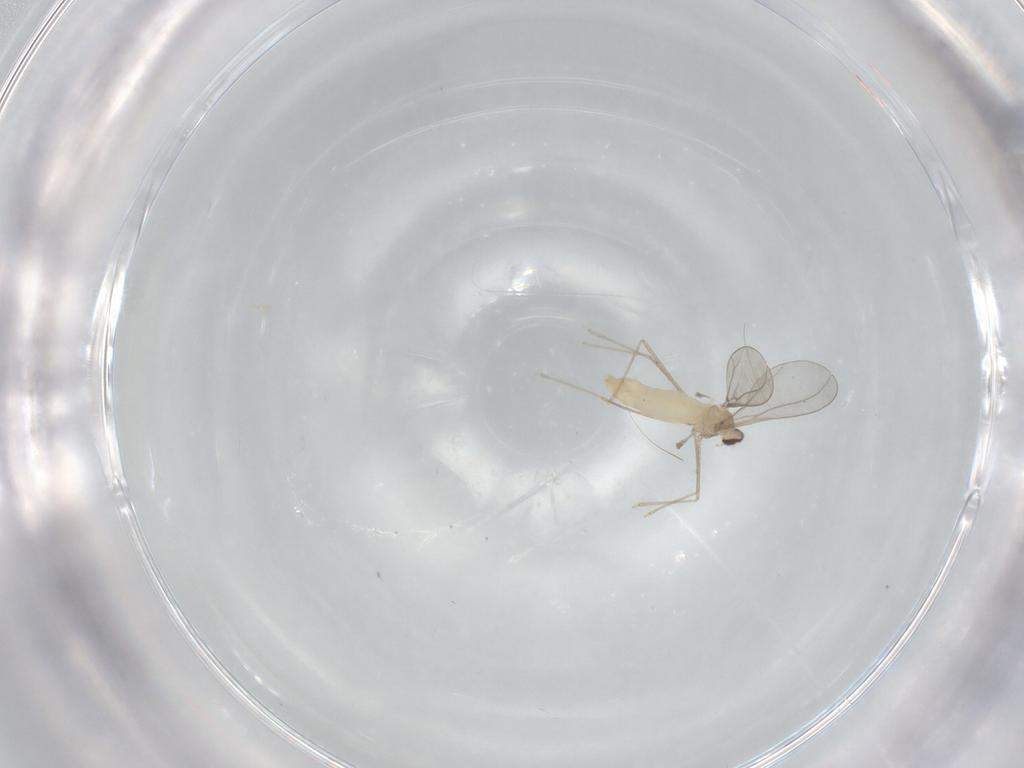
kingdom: Animalia
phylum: Arthropoda
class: Insecta
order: Diptera
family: Cecidomyiidae
